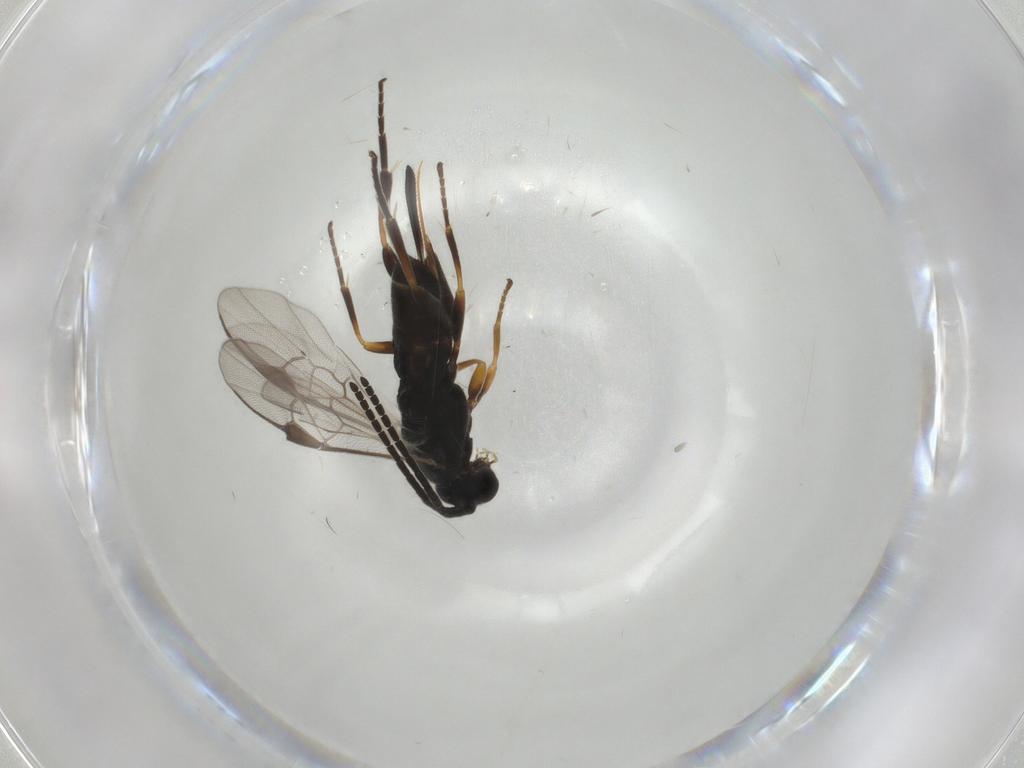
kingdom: Animalia
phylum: Arthropoda
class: Insecta
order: Hymenoptera
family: Braconidae
